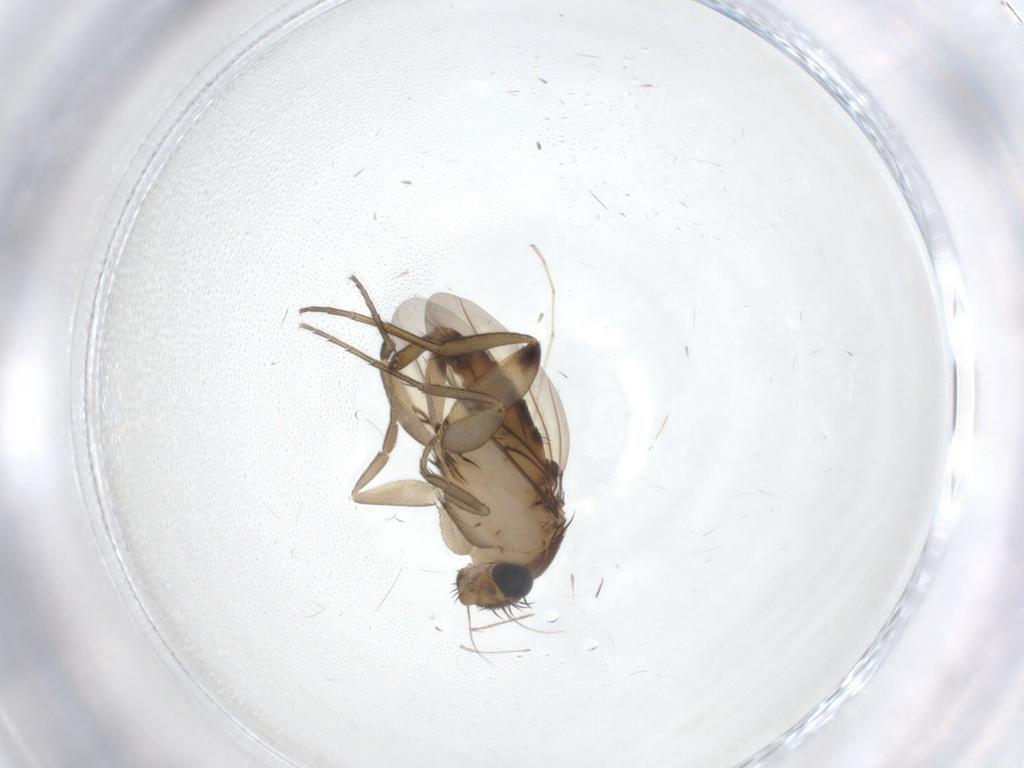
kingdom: Animalia
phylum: Arthropoda
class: Insecta
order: Diptera
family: Phoridae
